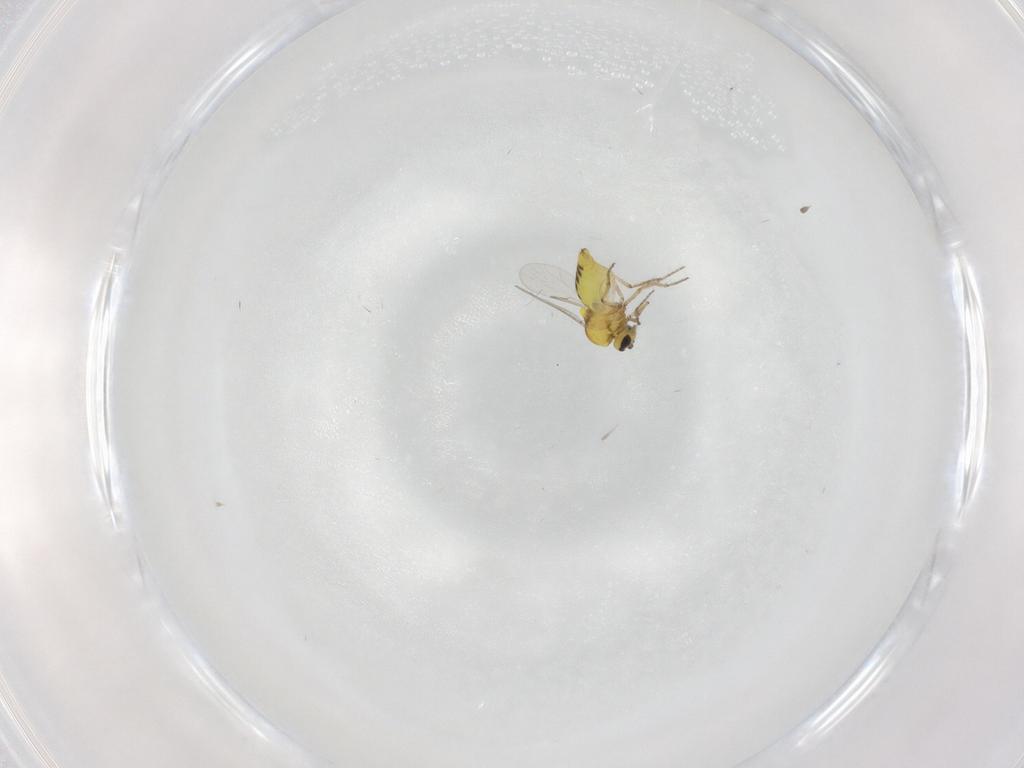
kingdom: Animalia
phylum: Arthropoda
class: Insecta
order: Diptera
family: Ceratopogonidae
